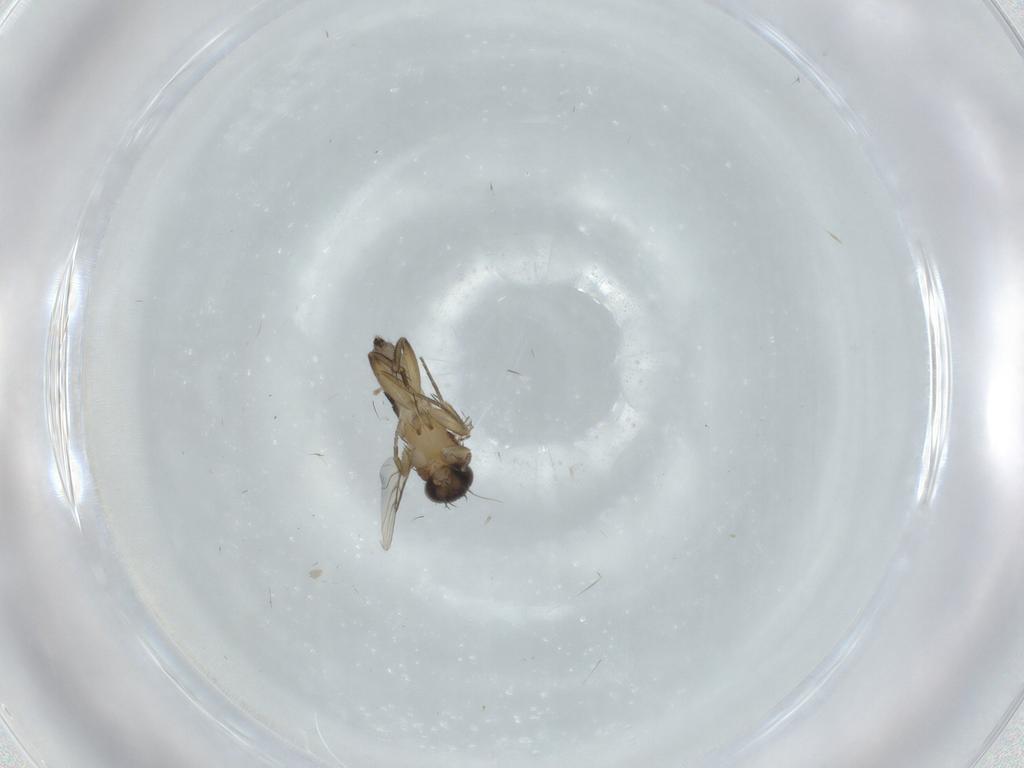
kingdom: Animalia
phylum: Arthropoda
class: Insecta
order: Diptera
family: Phoridae
